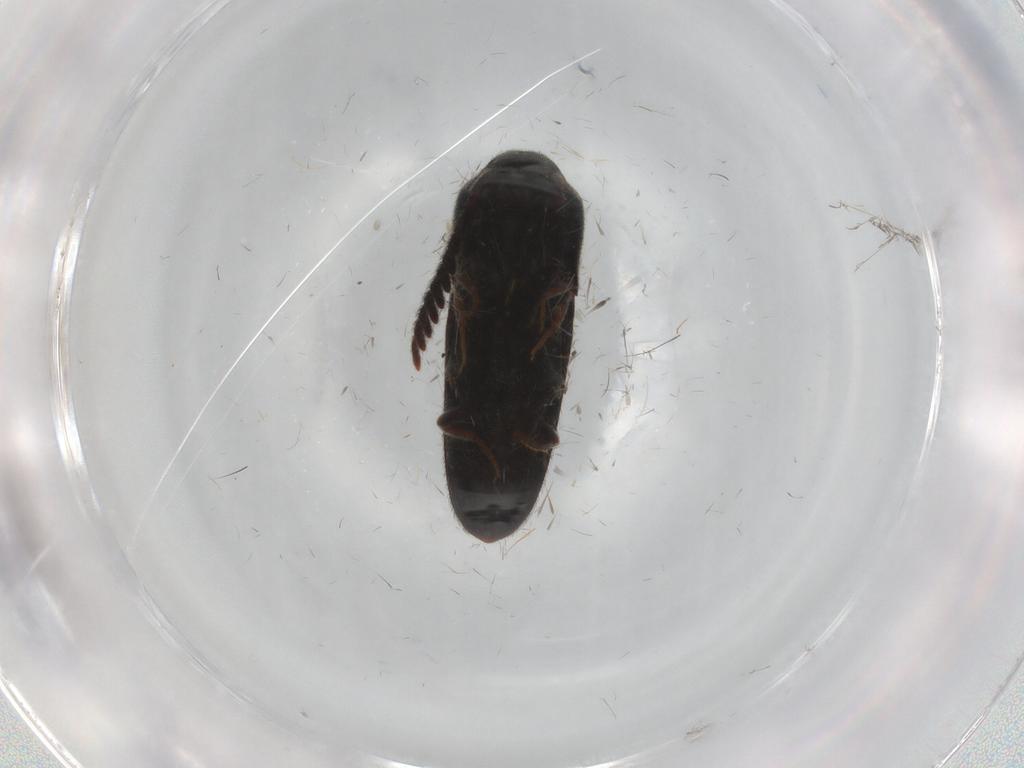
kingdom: Animalia
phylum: Arthropoda
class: Insecta
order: Coleoptera
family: Eucnemidae
